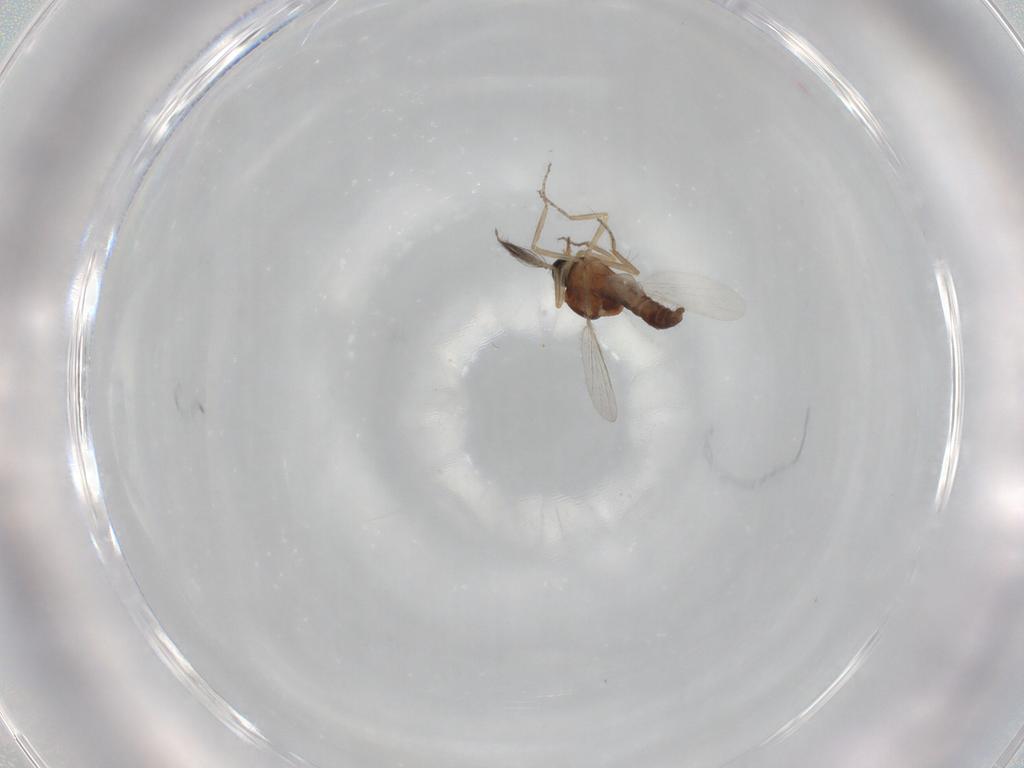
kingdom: Animalia
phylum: Arthropoda
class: Insecta
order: Diptera
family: Ceratopogonidae
